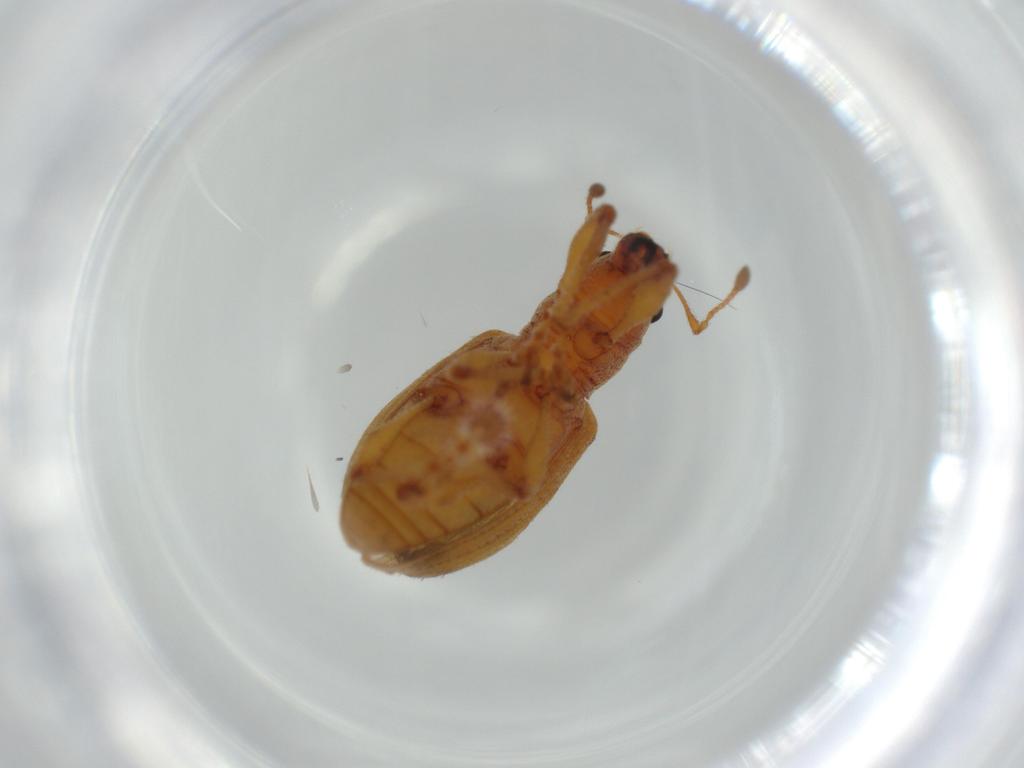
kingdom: Animalia
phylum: Arthropoda
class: Insecta
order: Coleoptera
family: Curculionidae
